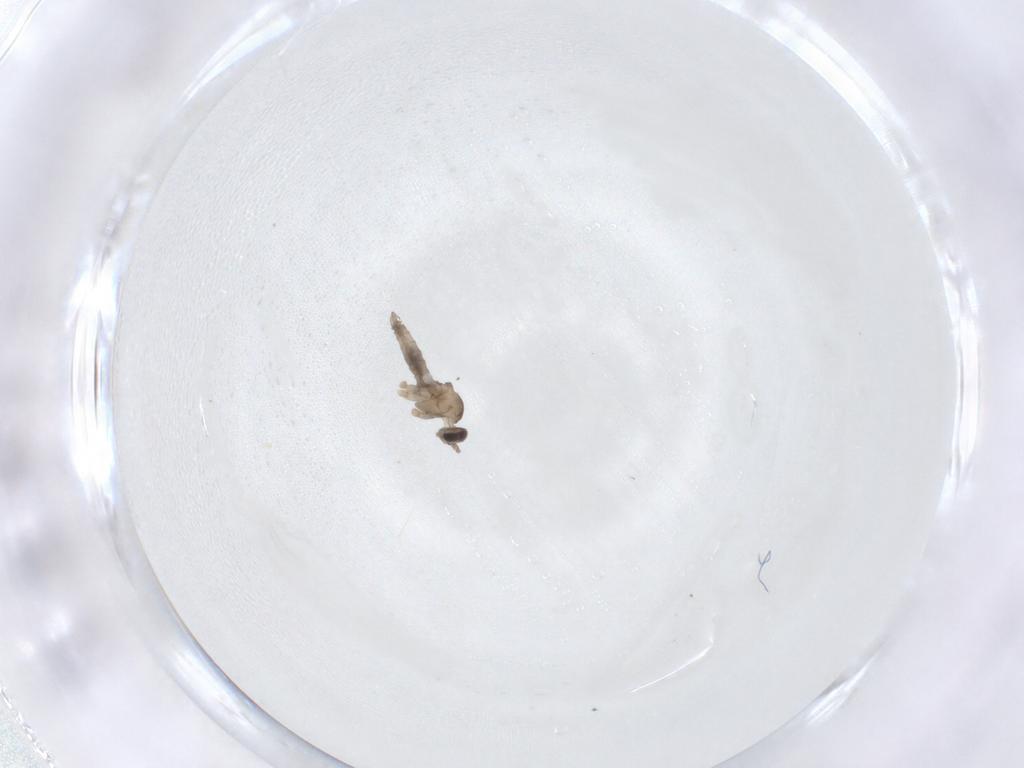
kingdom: Animalia
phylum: Arthropoda
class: Insecta
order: Diptera
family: Cecidomyiidae
